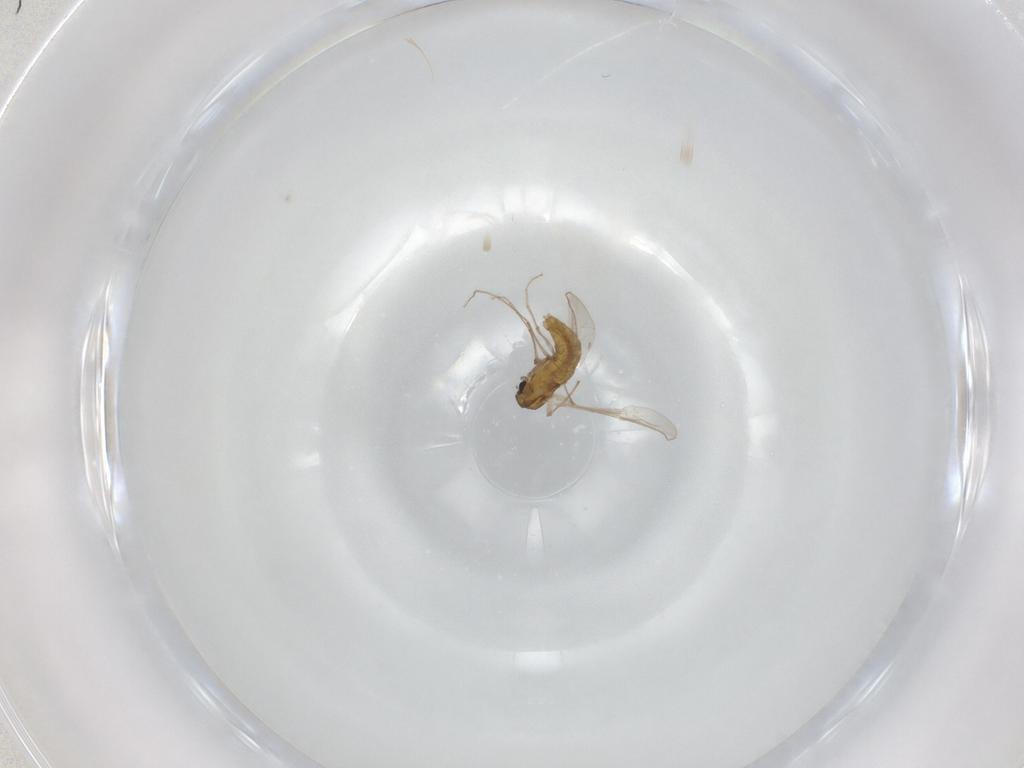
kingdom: Animalia
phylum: Arthropoda
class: Insecta
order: Diptera
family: Chironomidae
